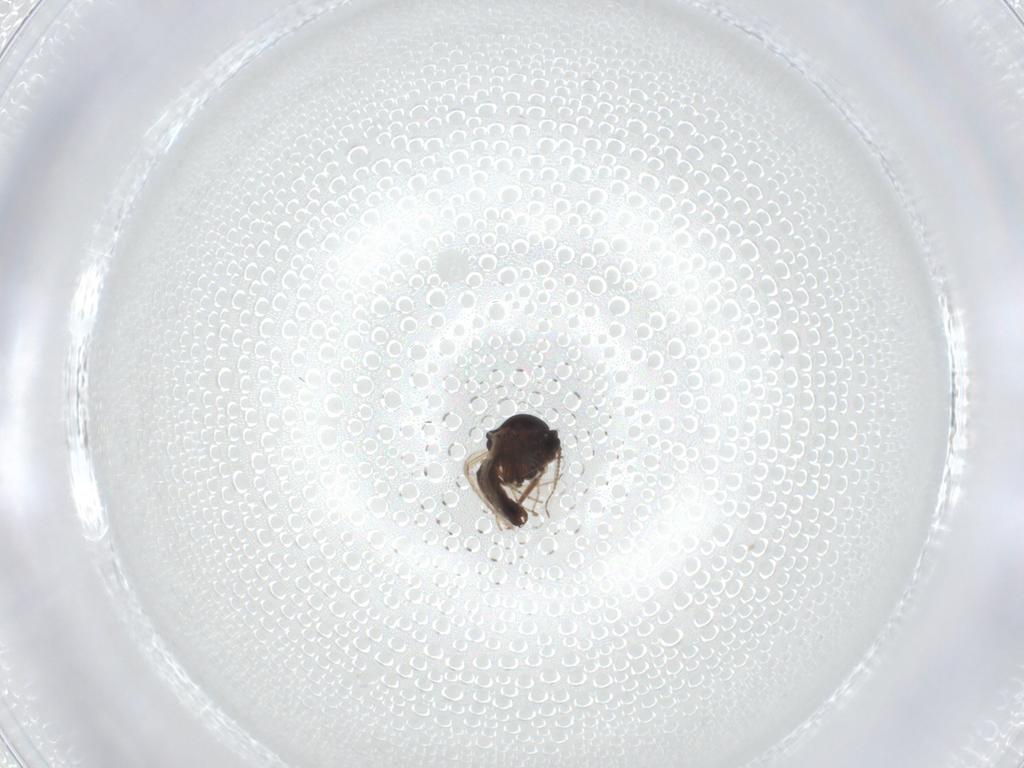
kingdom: Animalia
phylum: Arthropoda
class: Insecta
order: Diptera
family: Ceratopogonidae
